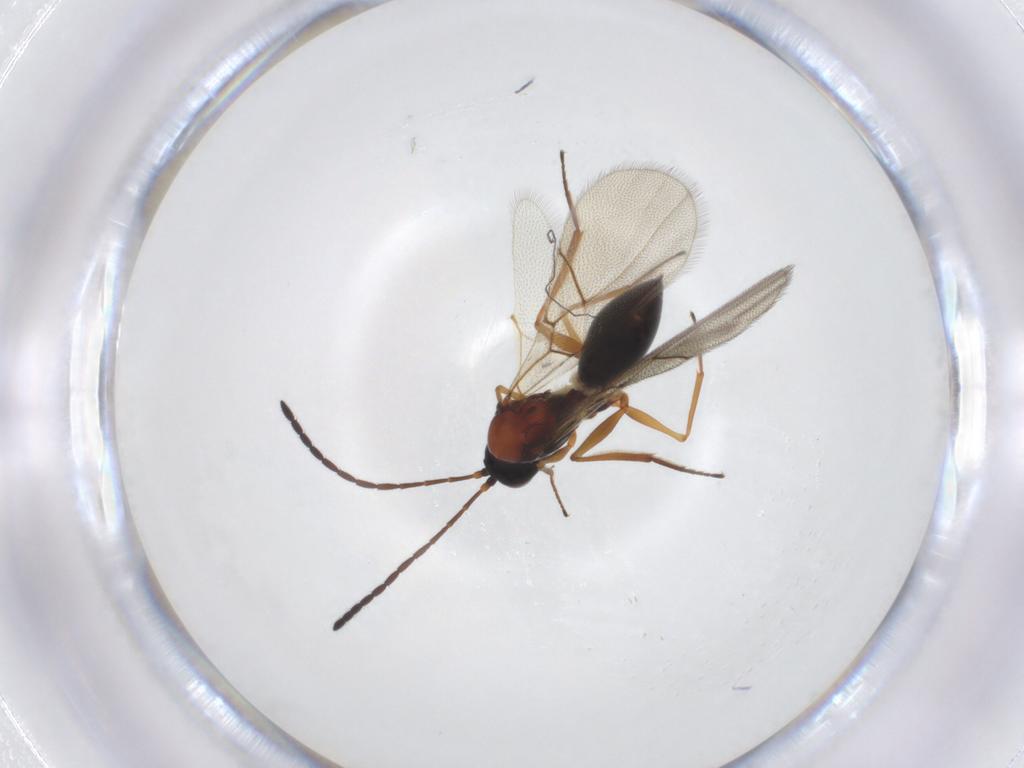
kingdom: Animalia
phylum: Arthropoda
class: Insecta
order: Hymenoptera
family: Figitidae
